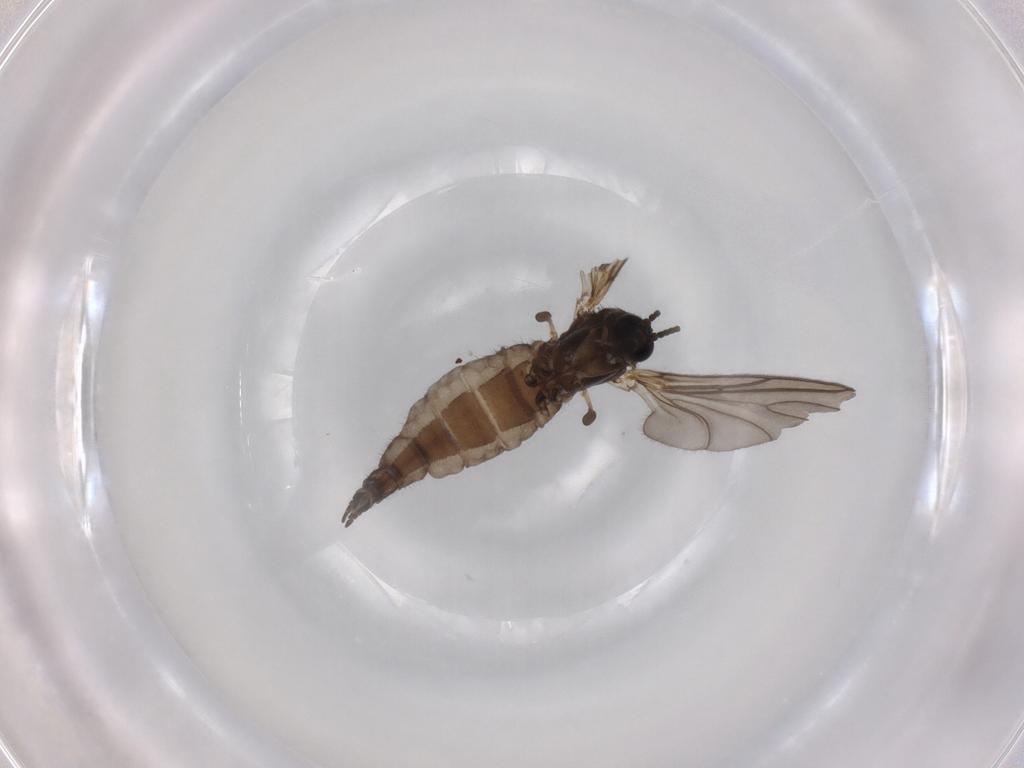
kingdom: Animalia
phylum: Arthropoda
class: Insecta
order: Diptera
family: Sciaridae
